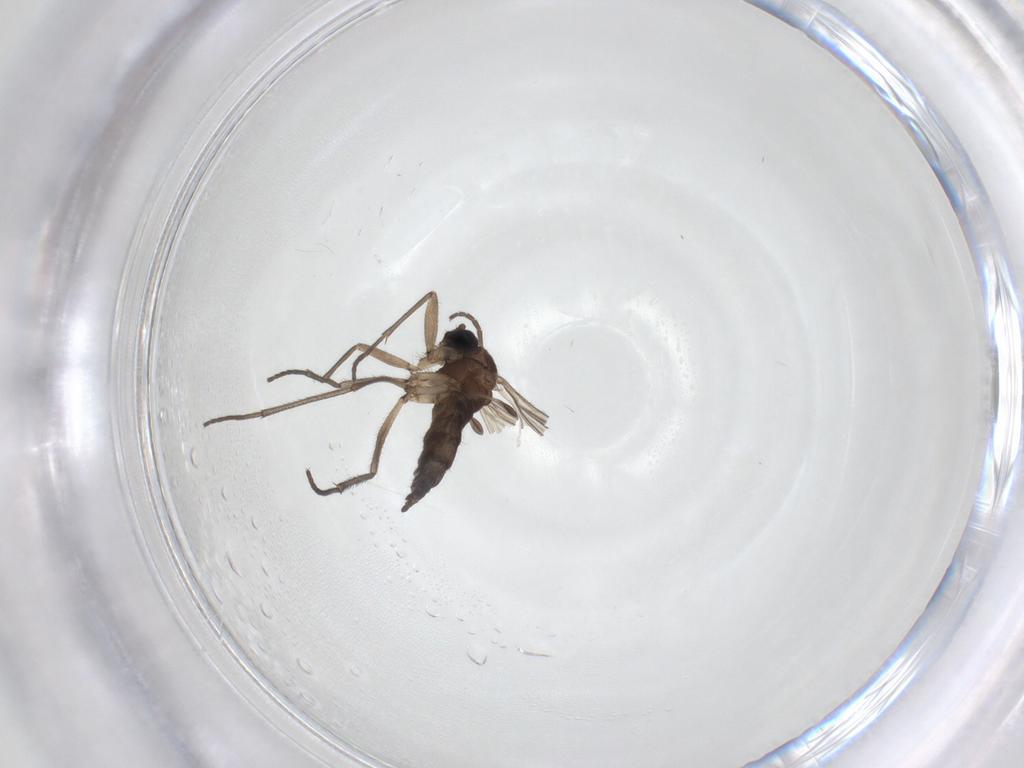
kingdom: Animalia
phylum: Arthropoda
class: Insecta
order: Diptera
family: Sciaridae
